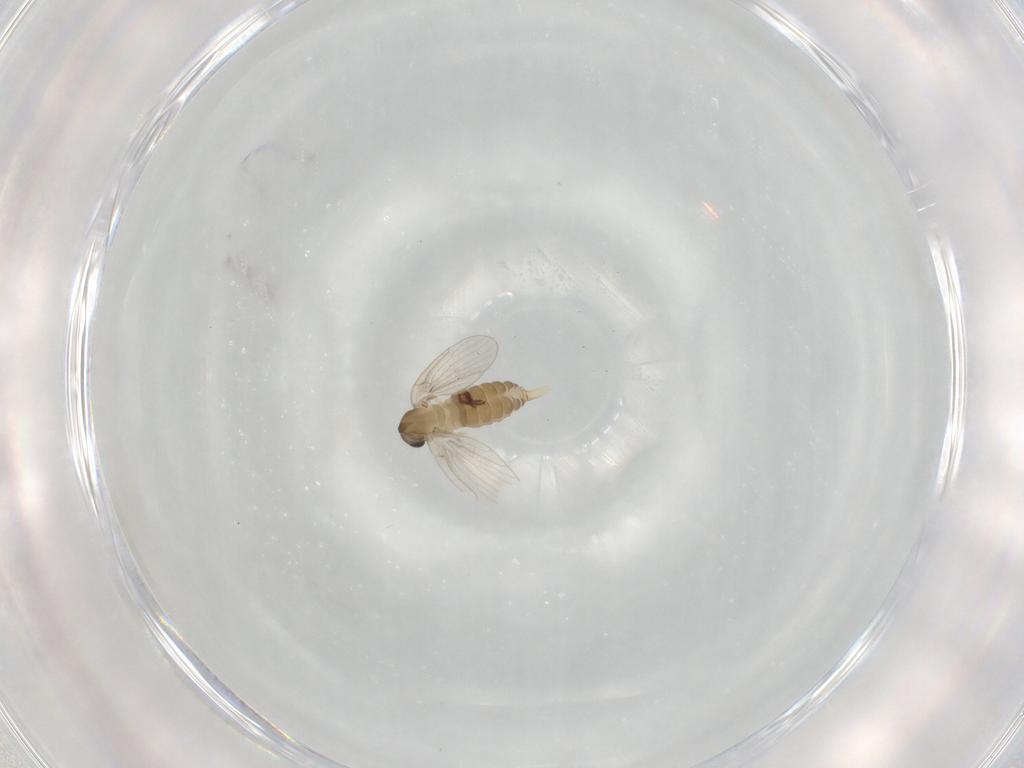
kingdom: Animalia
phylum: Arthropoda
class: Insecta
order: Diptera
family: Psychodidae
